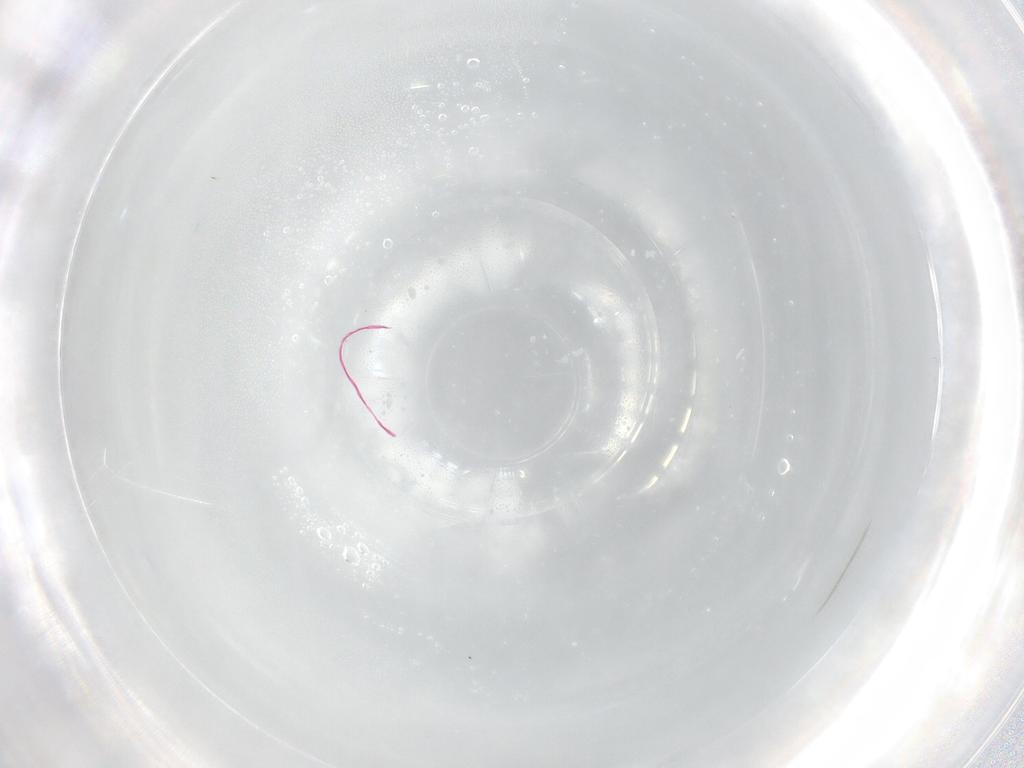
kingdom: Animalia
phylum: Arthropoda
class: Insecta
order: Mantodea
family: Miomantidae
